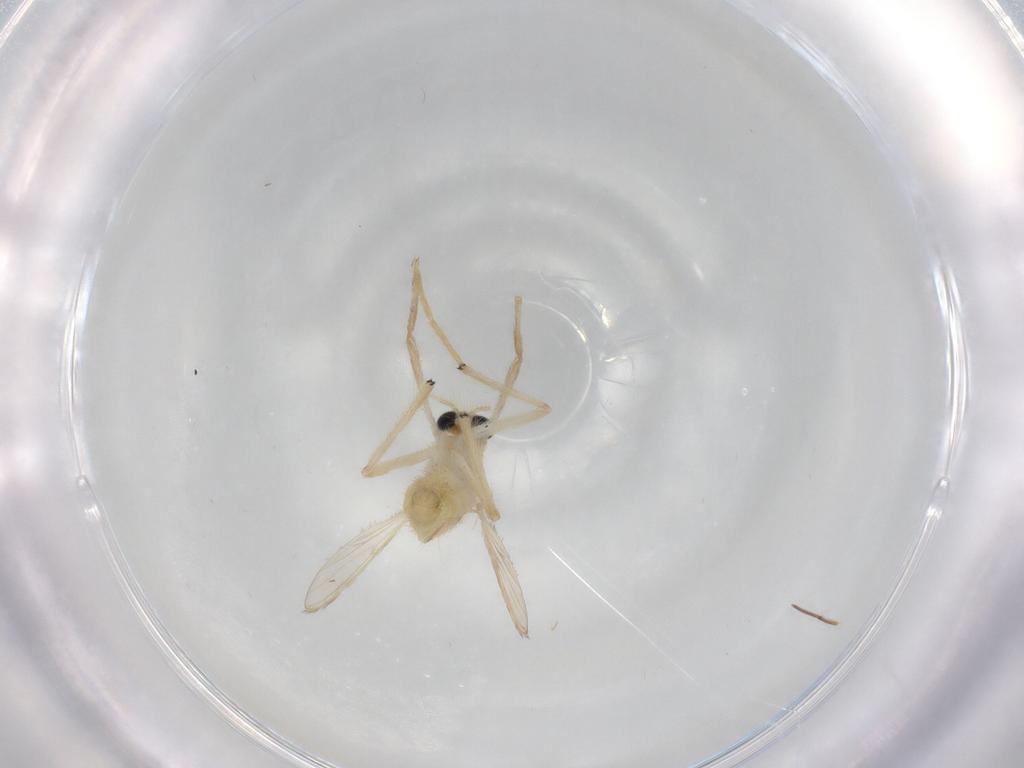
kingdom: Animalia
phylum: Arthropoda
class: Insecta
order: Diptera
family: Chironomidae
